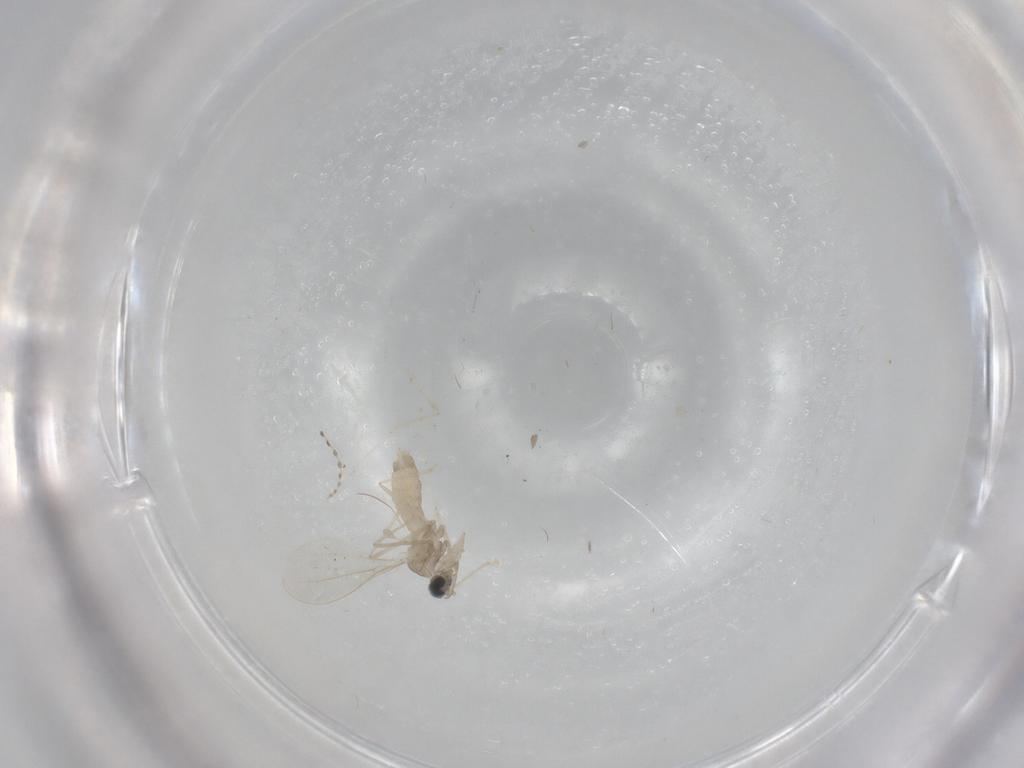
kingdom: Animalia
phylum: Arthropoda
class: Insecta
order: Diptera
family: Cecidomyiidae
